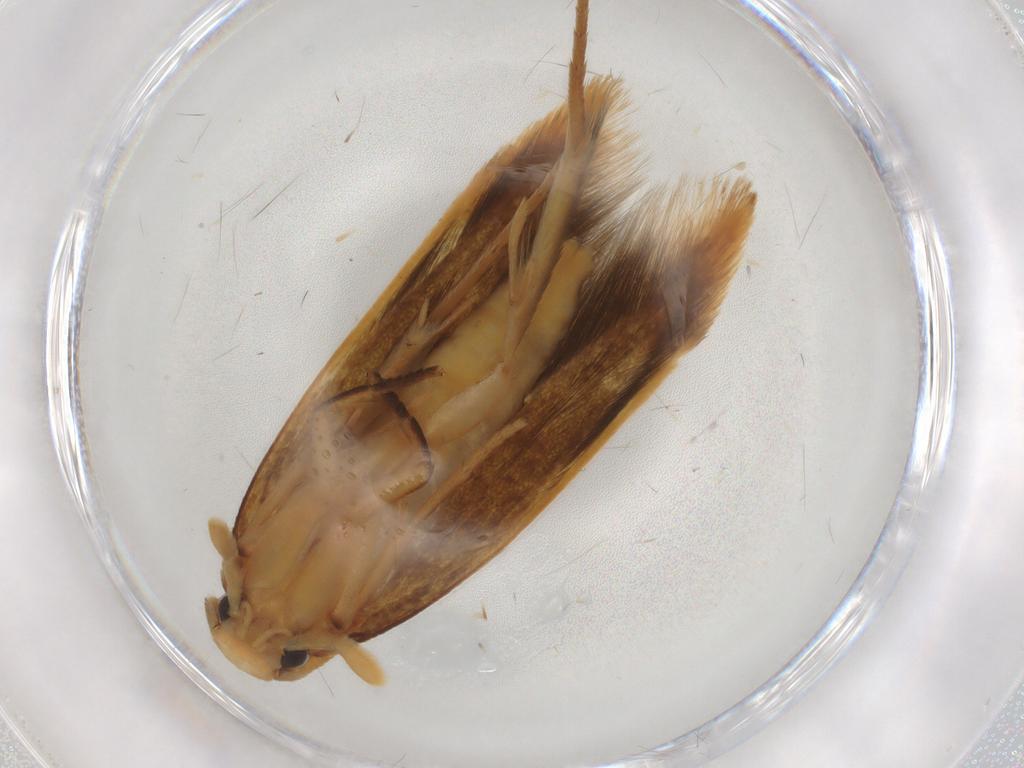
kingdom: Animalia
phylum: Arthropoda
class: Insecta
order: Lepidoptera
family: Tineidae
